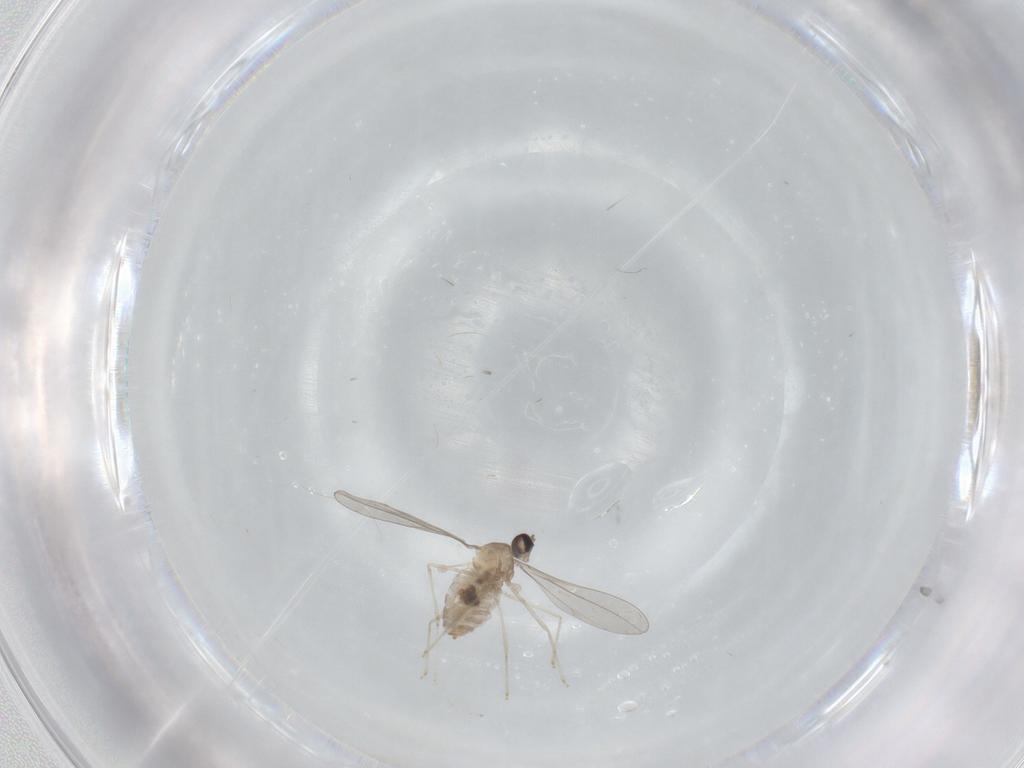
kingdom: Animalia
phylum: Arthropoda
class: Insecta
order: Diptera
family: Cecidomyiidae
